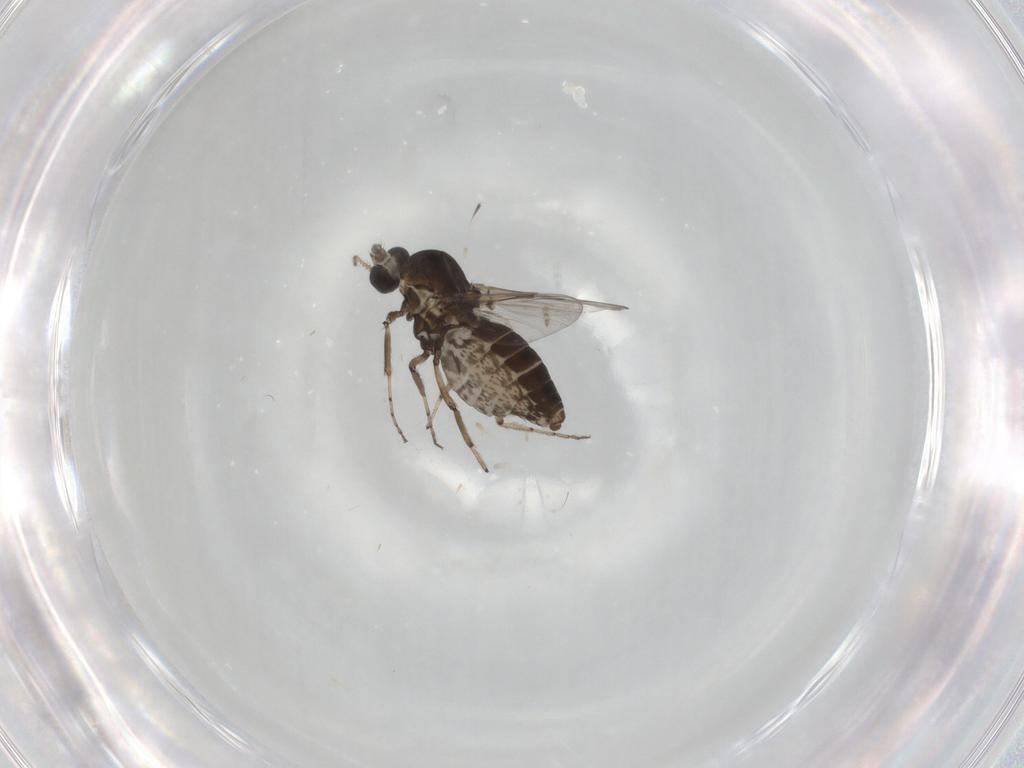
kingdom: Animalia
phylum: Arthropoda
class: Insecta
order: Diptera
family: Ceratopogonidae
